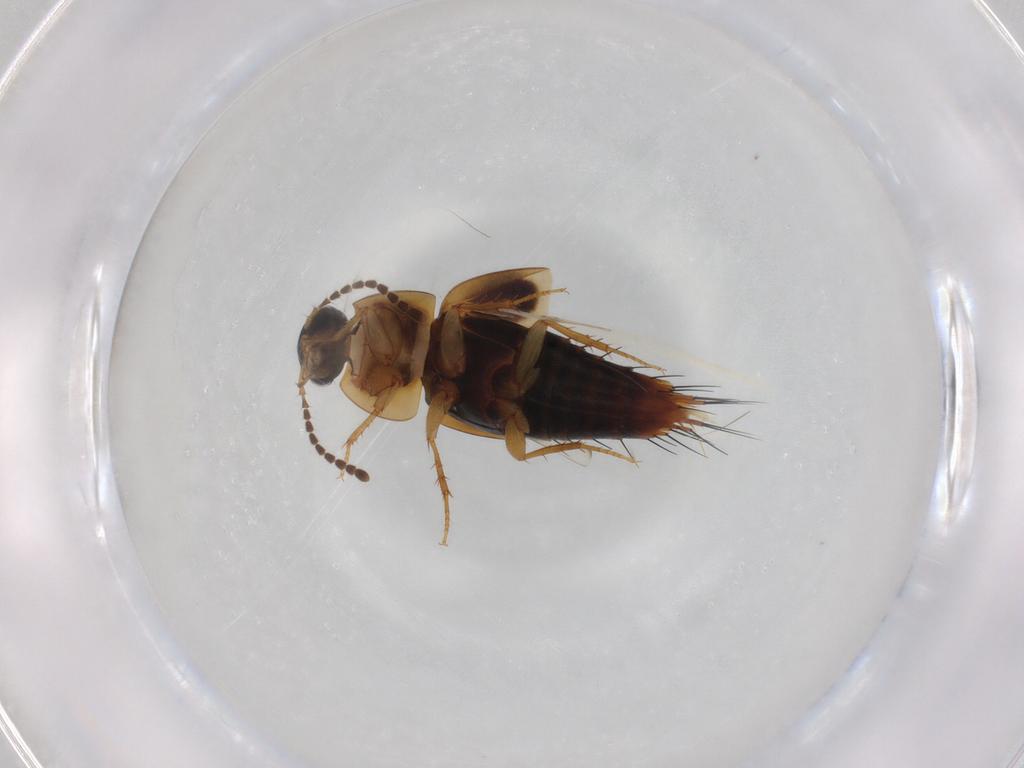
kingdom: Animalia
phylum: Arthropoda
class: Insecta
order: Coleoptera
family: Staphylinidae
